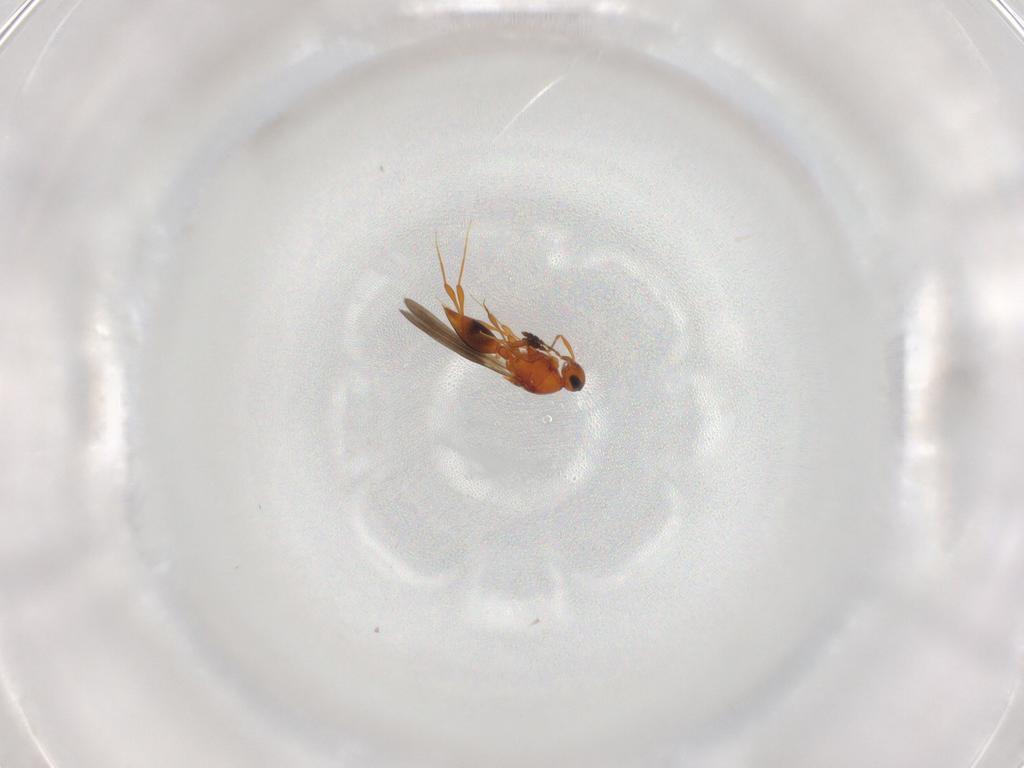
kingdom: Animalia
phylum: Arthropoda
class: Insecta
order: Hymenoptera
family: Platygastridae
